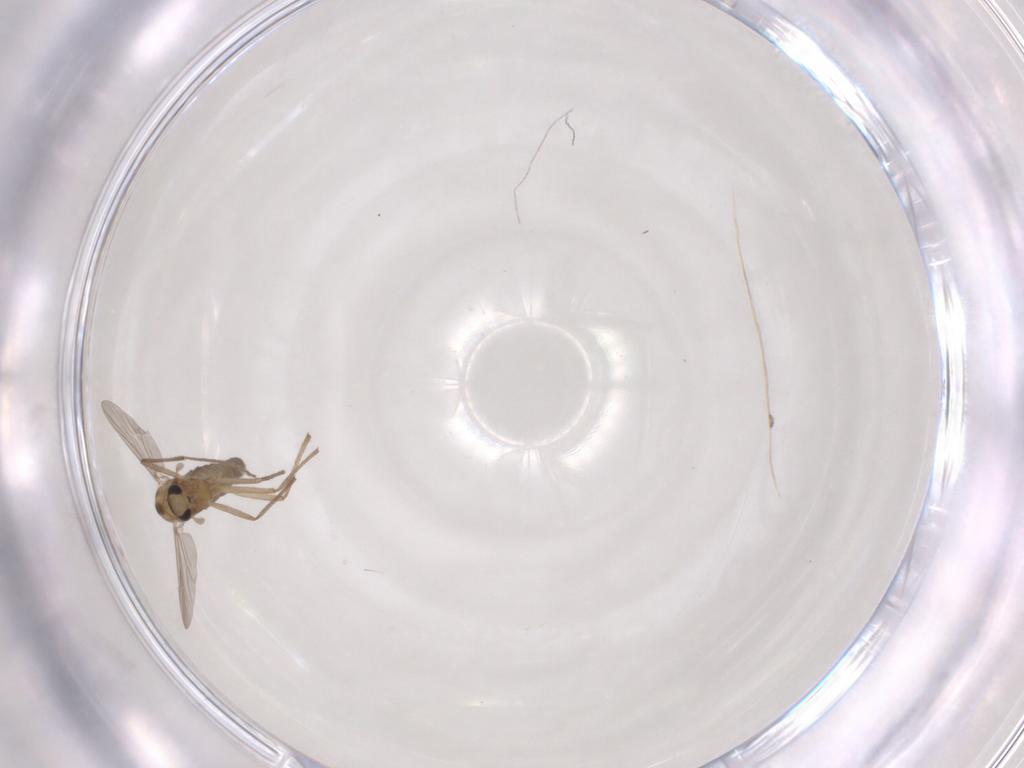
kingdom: Animalia
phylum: Arthropoda
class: Insecta
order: Diptera
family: Chironomidae
